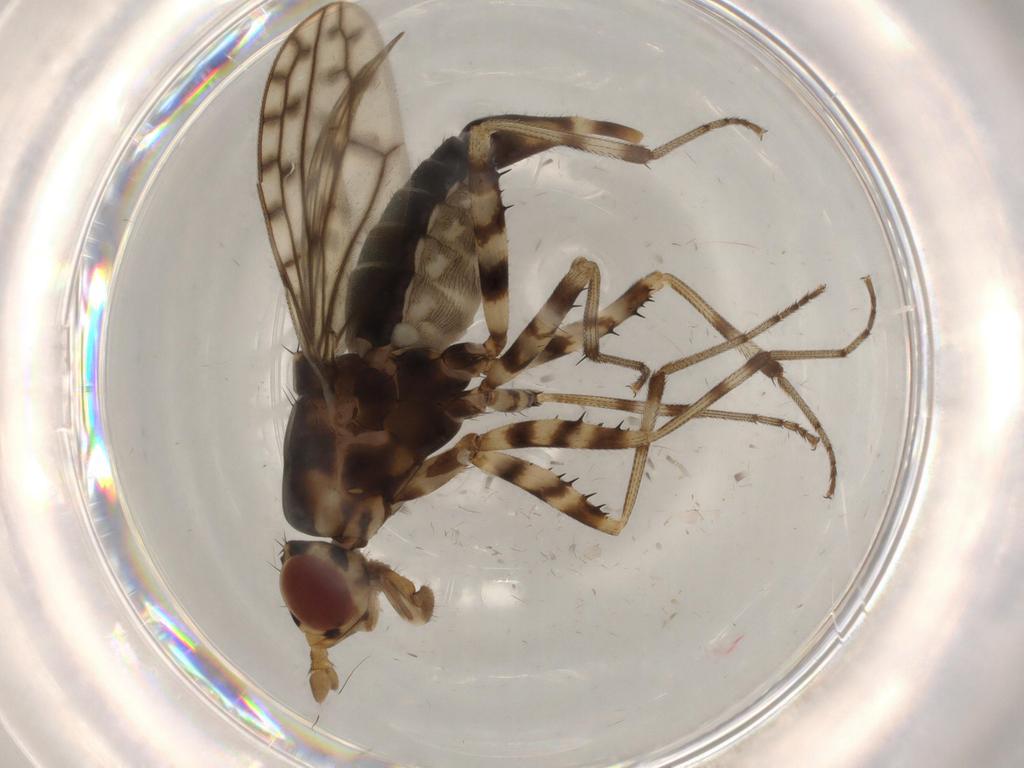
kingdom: Animalia
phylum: Arthropoda
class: Insecta
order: Diptera
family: Neriidae
